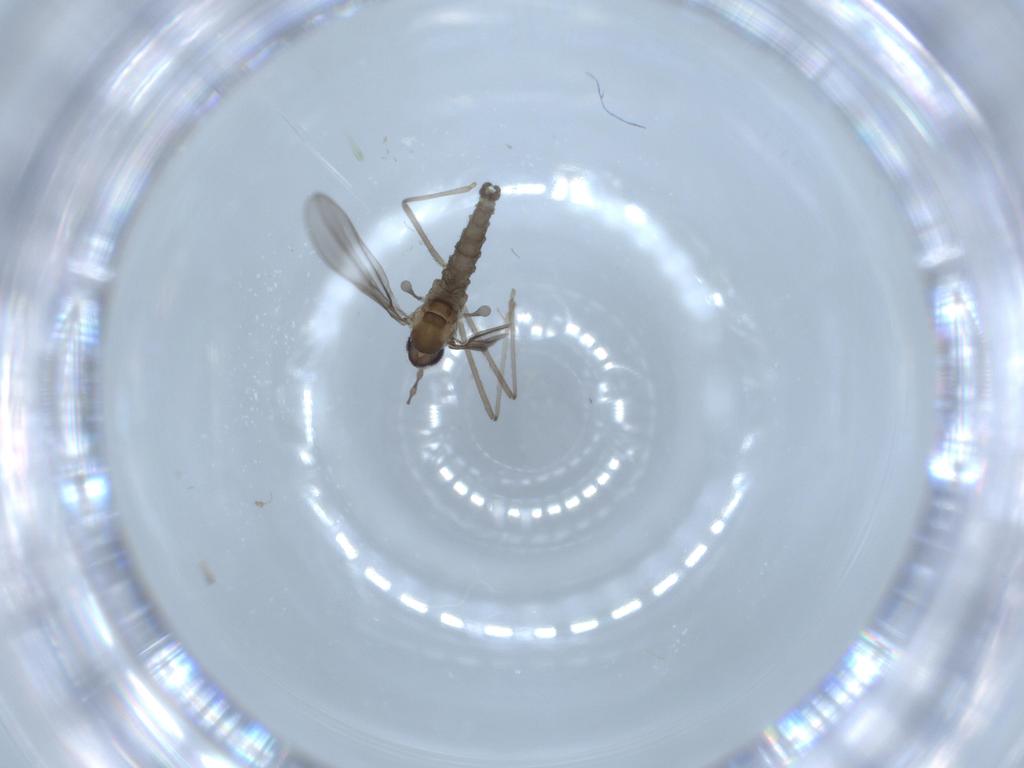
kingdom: Animalia
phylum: Arthropoda
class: Insecta
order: Diptera
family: Cecidomyiidae
